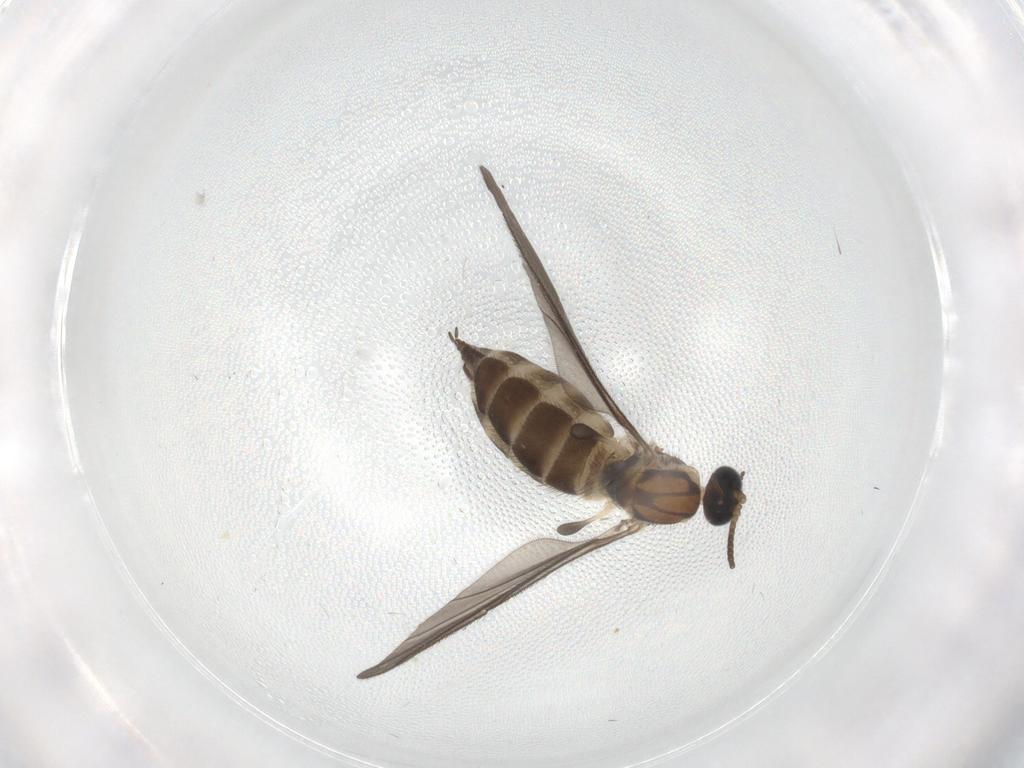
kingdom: Animalia
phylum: Arthropoda
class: Insecta
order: Diptera
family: Sciaridae
